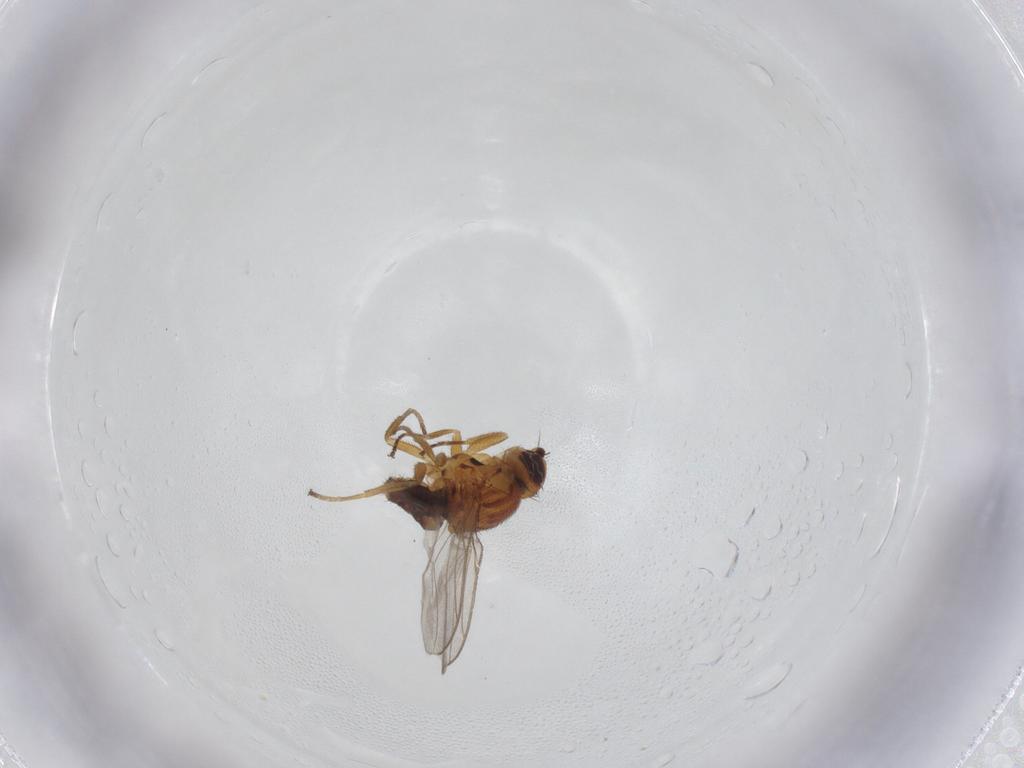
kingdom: Animalia
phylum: Arthropoda
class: Insecta
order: Diptera
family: Chloropidae
